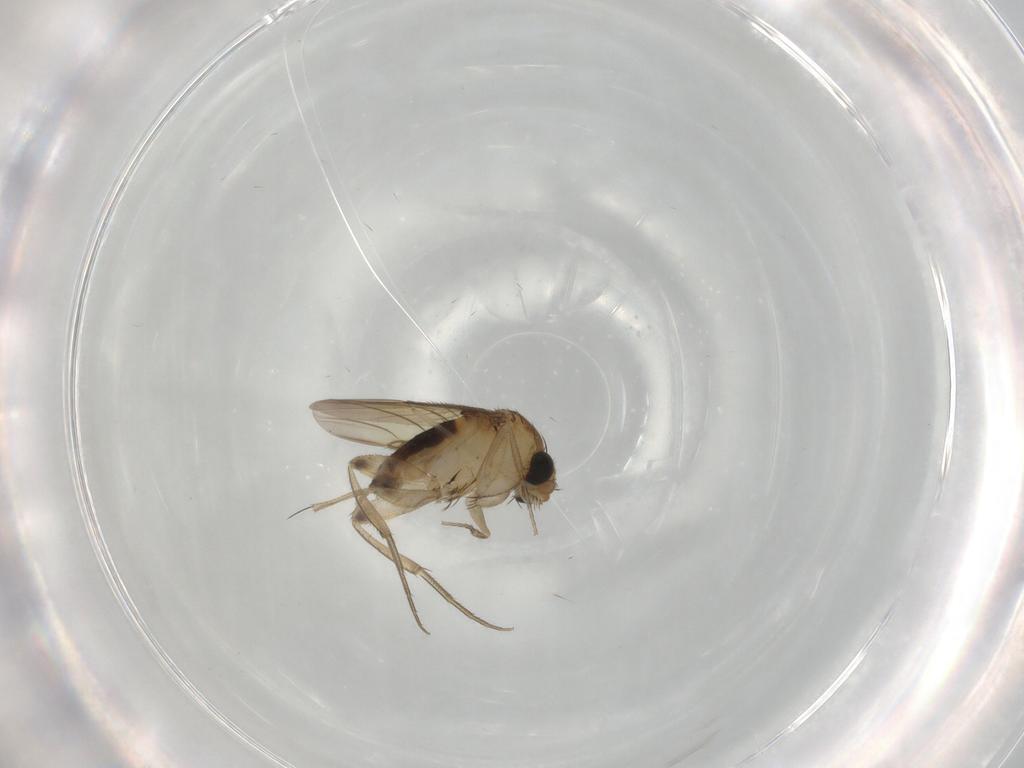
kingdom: Animalia
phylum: Arthropoda
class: Insecta
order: Diptera
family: Phoridae
